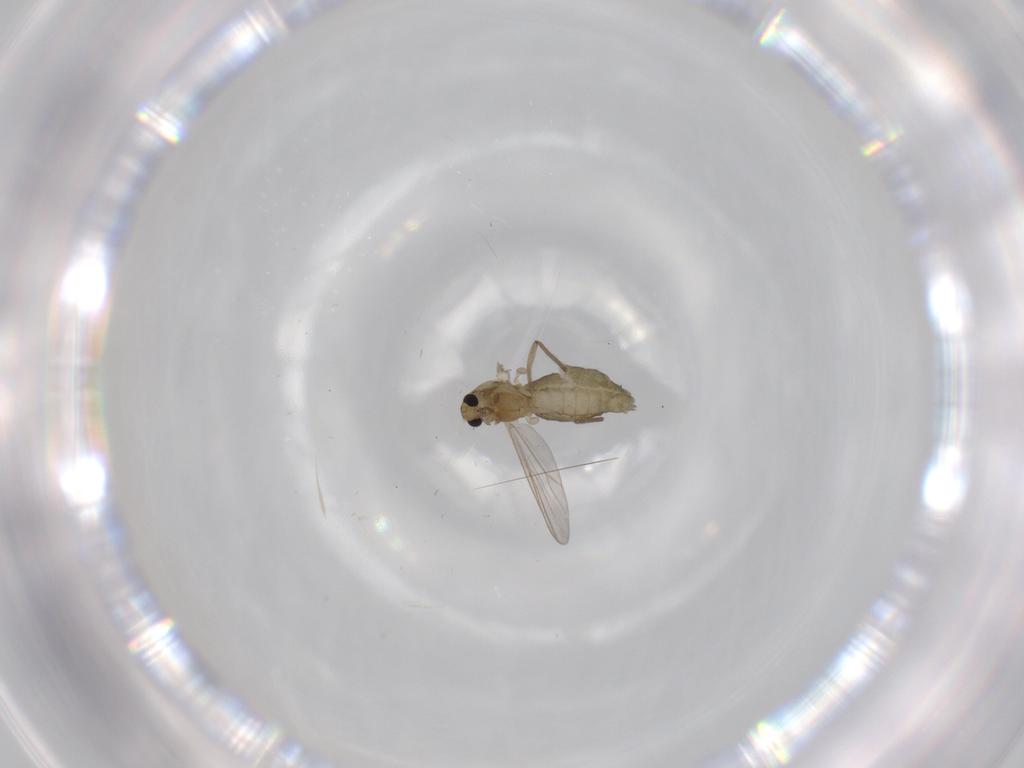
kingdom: Animalia
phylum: Arthropoda
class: Insecta
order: Diptera
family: Chironomidae
